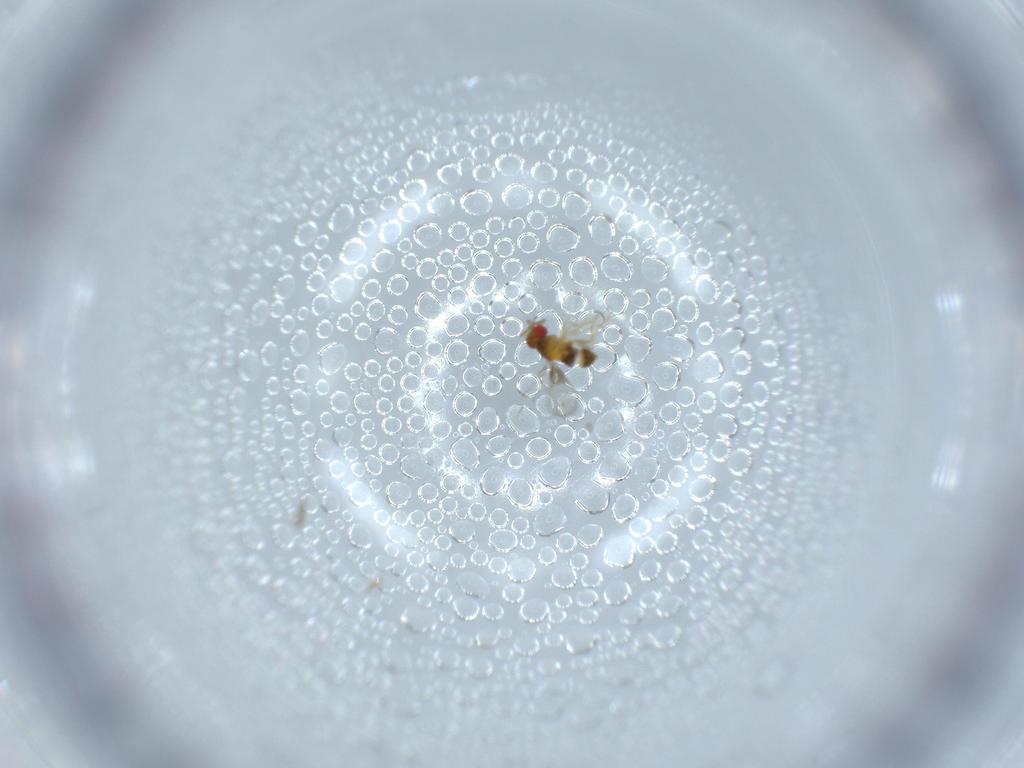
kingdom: Animalia
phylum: Arthropoda
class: Insecta
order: Hymenoptera
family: Trichogrammatidae
